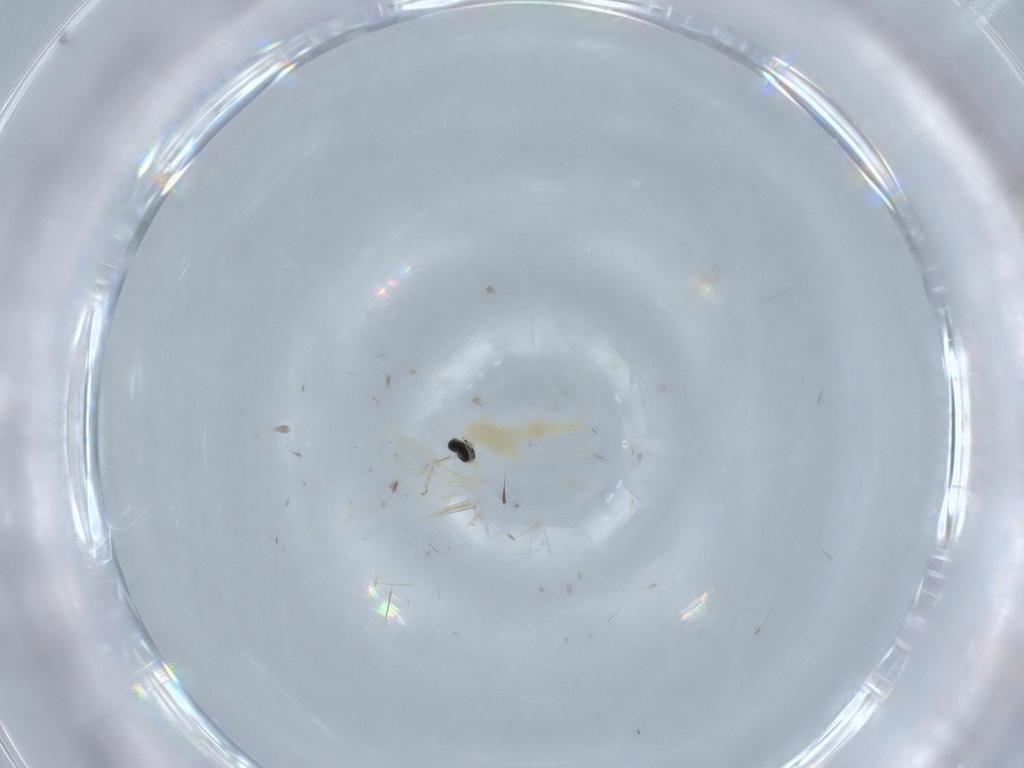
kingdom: Animalia
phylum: Arthropoda
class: Insecta
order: Diptera
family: Cecidomyiidae
